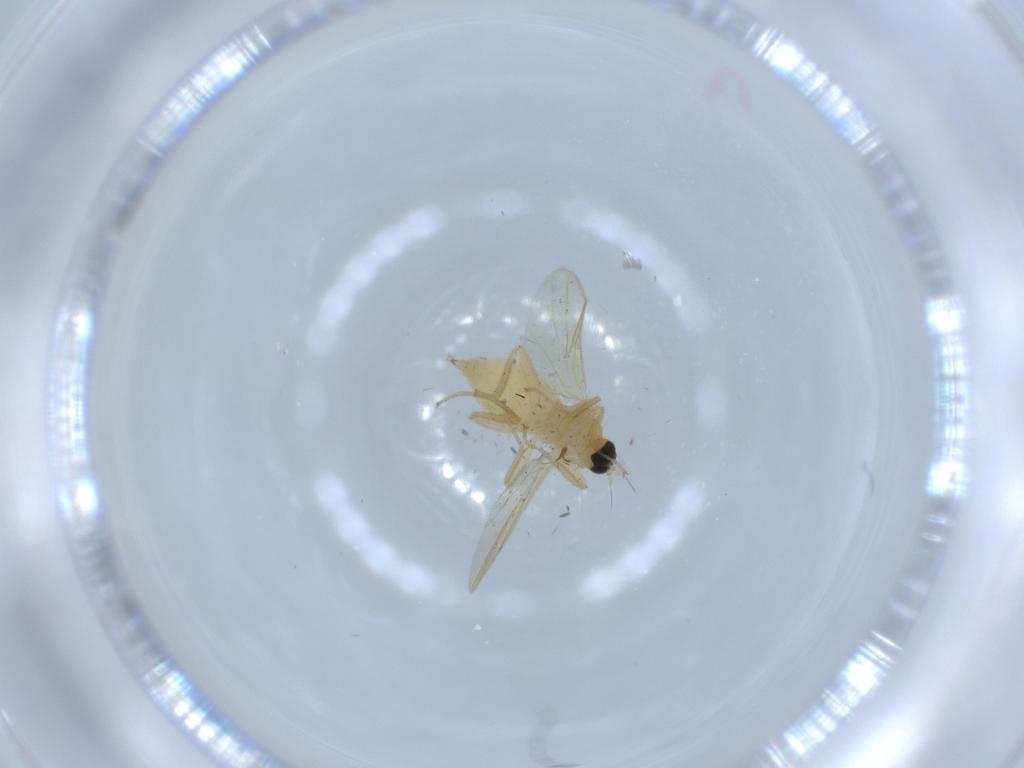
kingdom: Animalia
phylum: Arthropoda
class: Insecta
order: Diptera
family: Hybotidae
